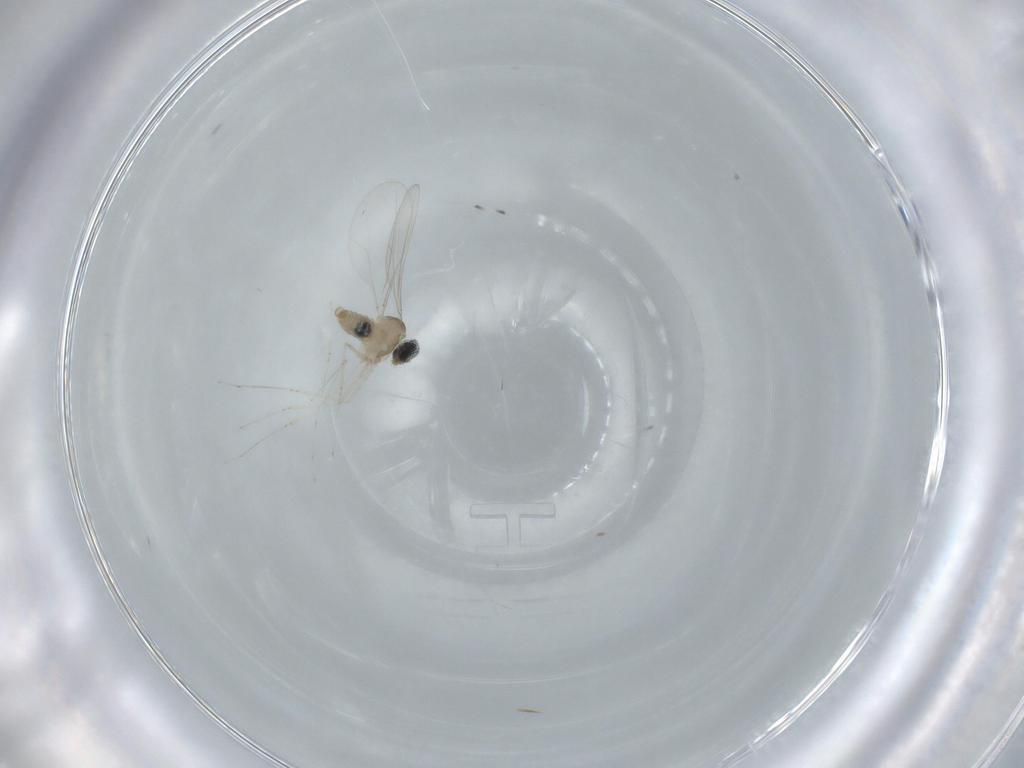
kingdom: Animalia
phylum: Arthropoda
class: Insecta
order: Diptera
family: Cecidomyiidae
